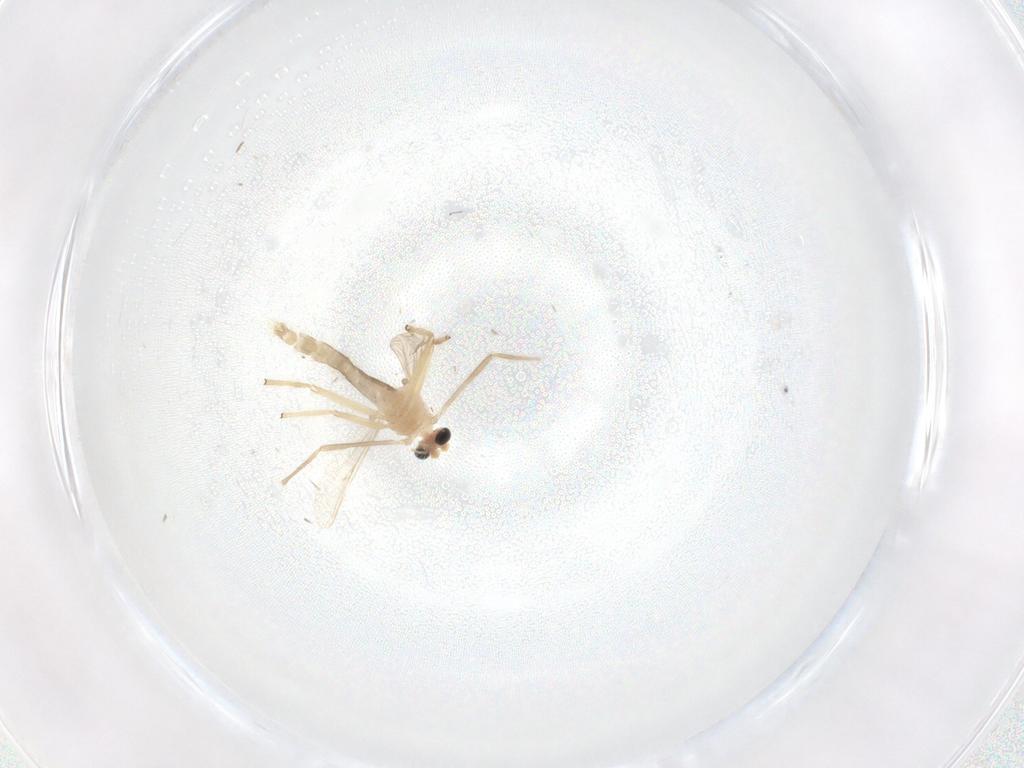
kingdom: Animalia
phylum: Arthropoda
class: Insecta
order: Diptera
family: Chironomidae
